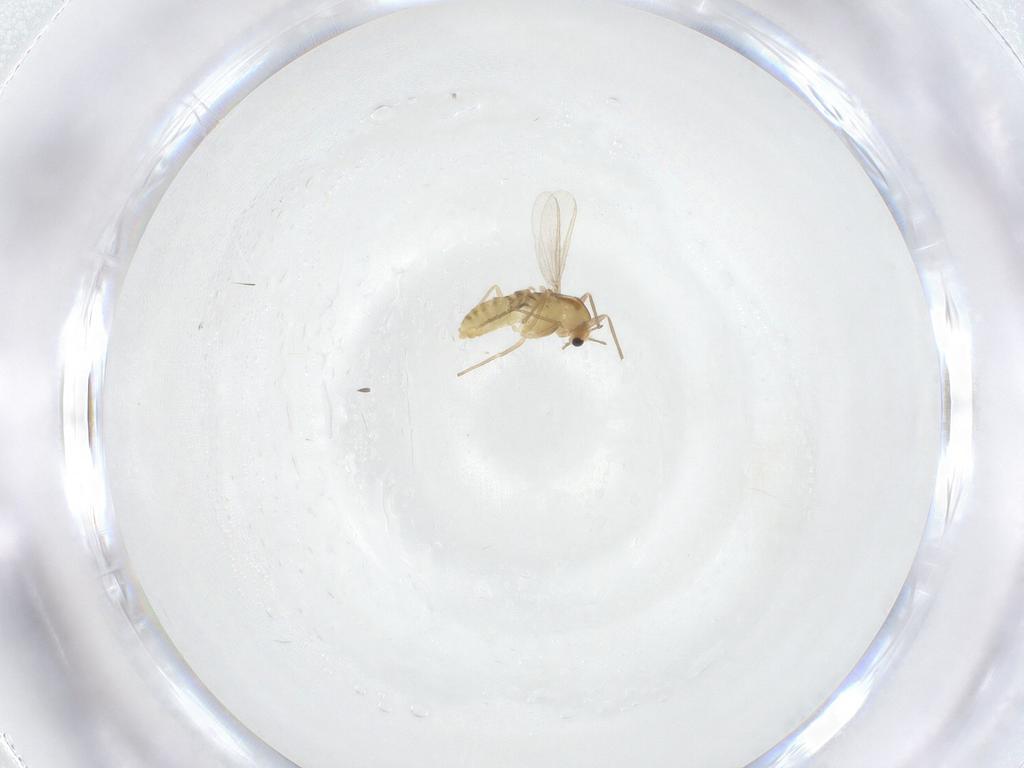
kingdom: Animalia
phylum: Arthropoda
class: Insecta
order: Diptera
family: Chironomidae
